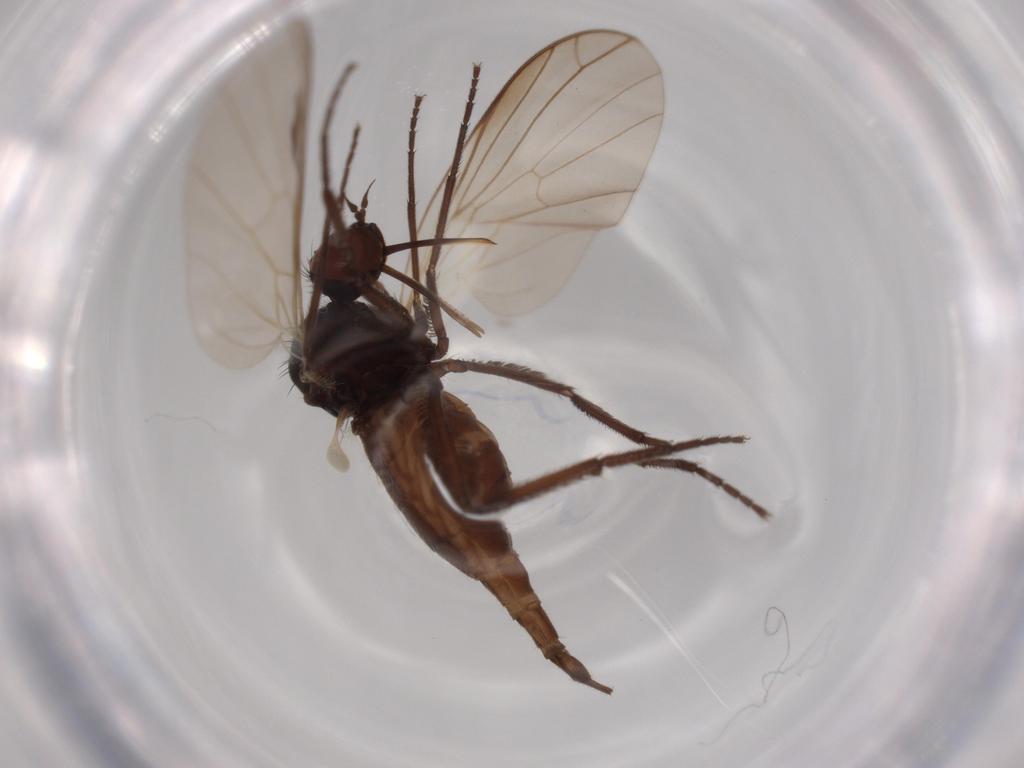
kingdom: Animalia
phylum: Arthropoda
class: Insecta
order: Diptera
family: Empididae
